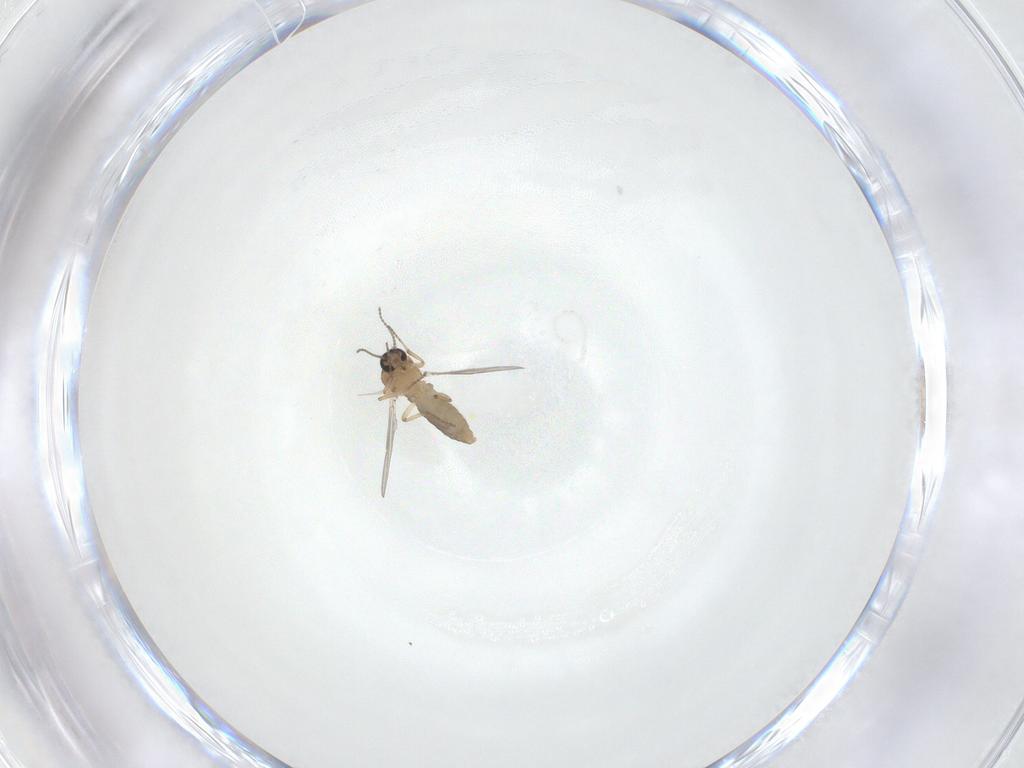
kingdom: Animalia
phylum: Arthropoda
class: Insecta
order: Diptera
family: Ceratopogonidae
